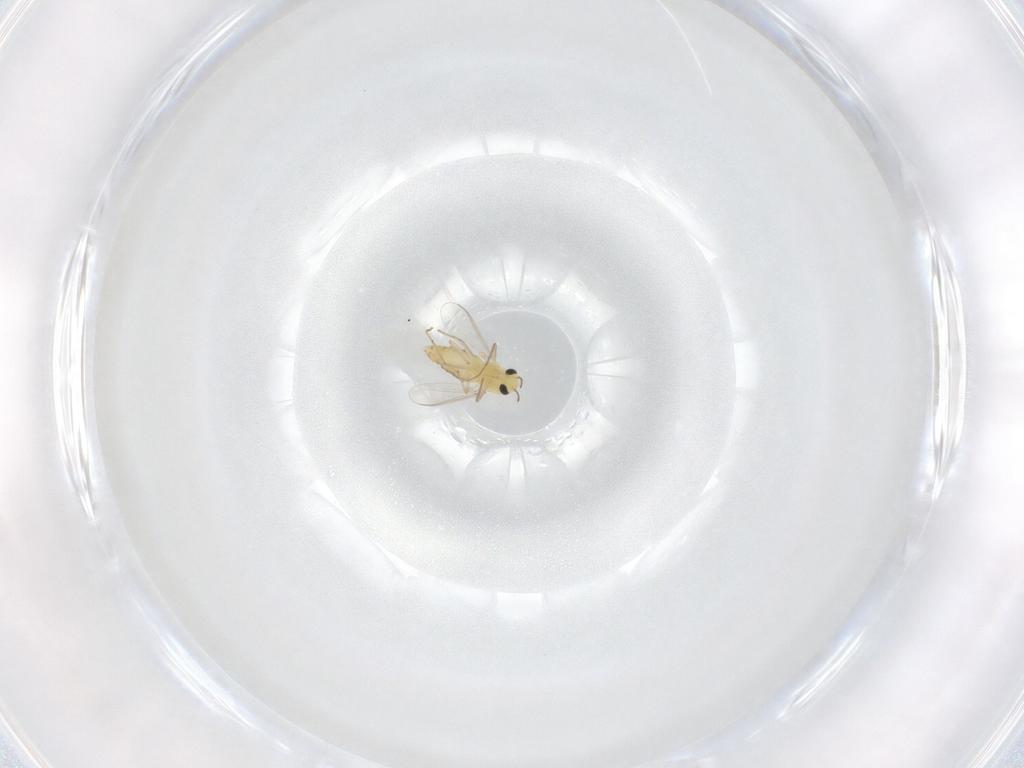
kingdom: Animalia
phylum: Arthropoda
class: Insecta
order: Diptera
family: Chironomidae
